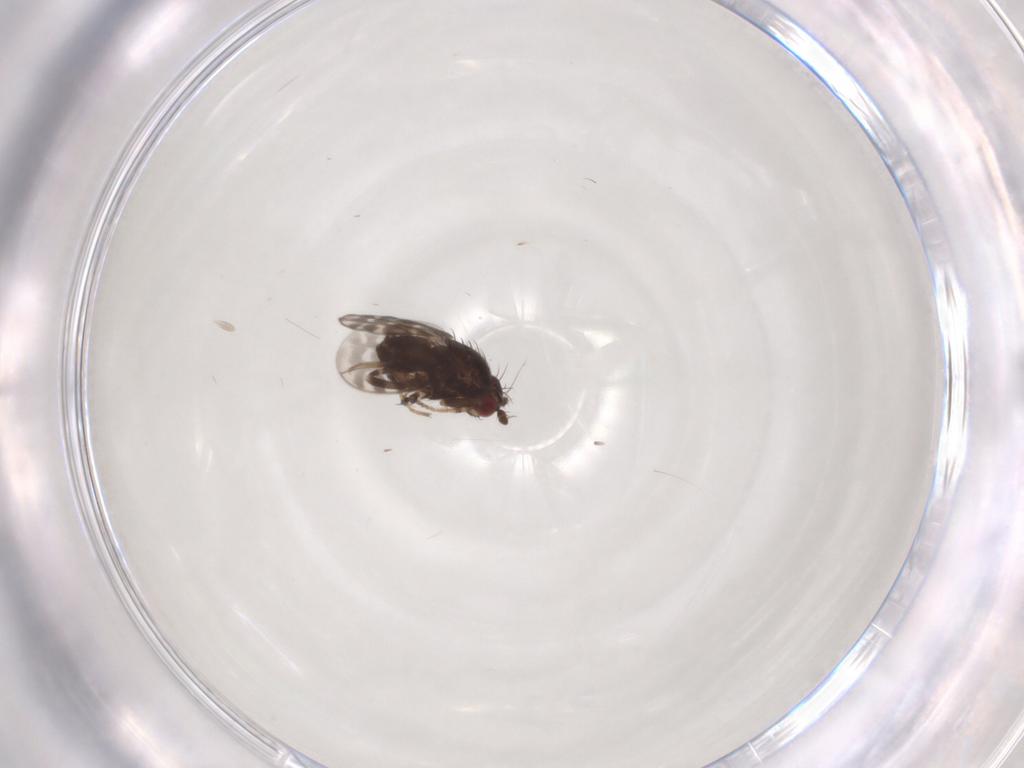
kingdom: Animalia
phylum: Arthropoda
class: Insecta
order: Diptera
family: Sphaeroceridae
